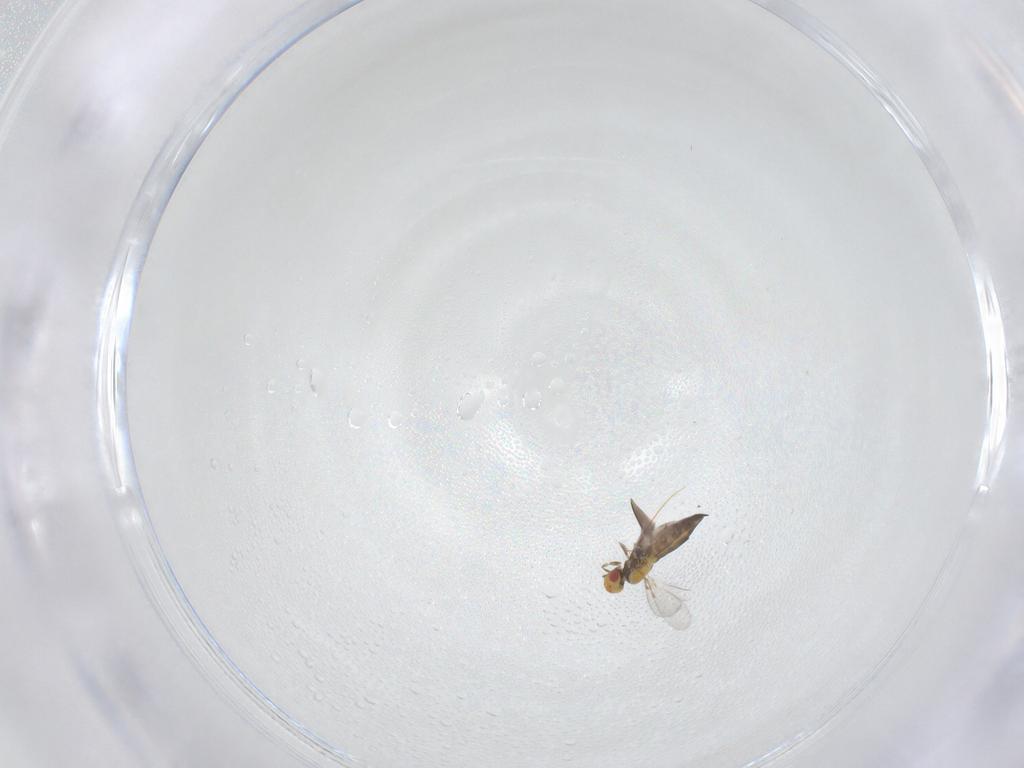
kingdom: Animalia
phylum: Arthropoda
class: Insecta
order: Hymenoptera
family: Trichogrammatidae
